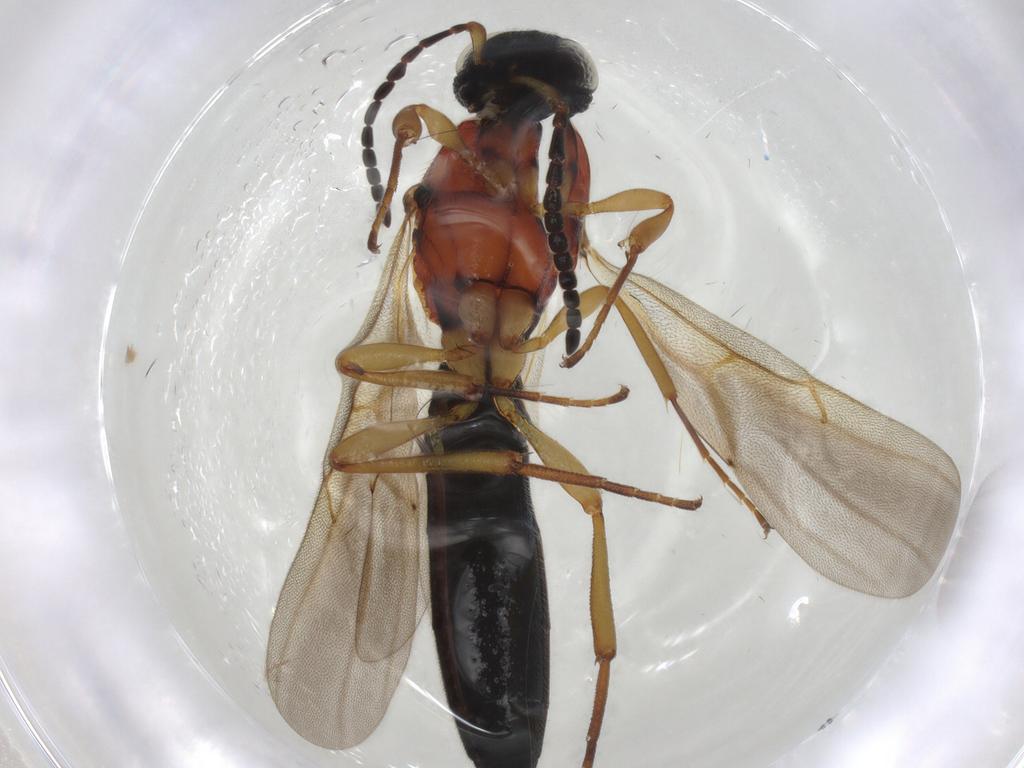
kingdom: Animalia
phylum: Arthropoda
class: Insecta
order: Hymenoptera
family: Scelionidae
